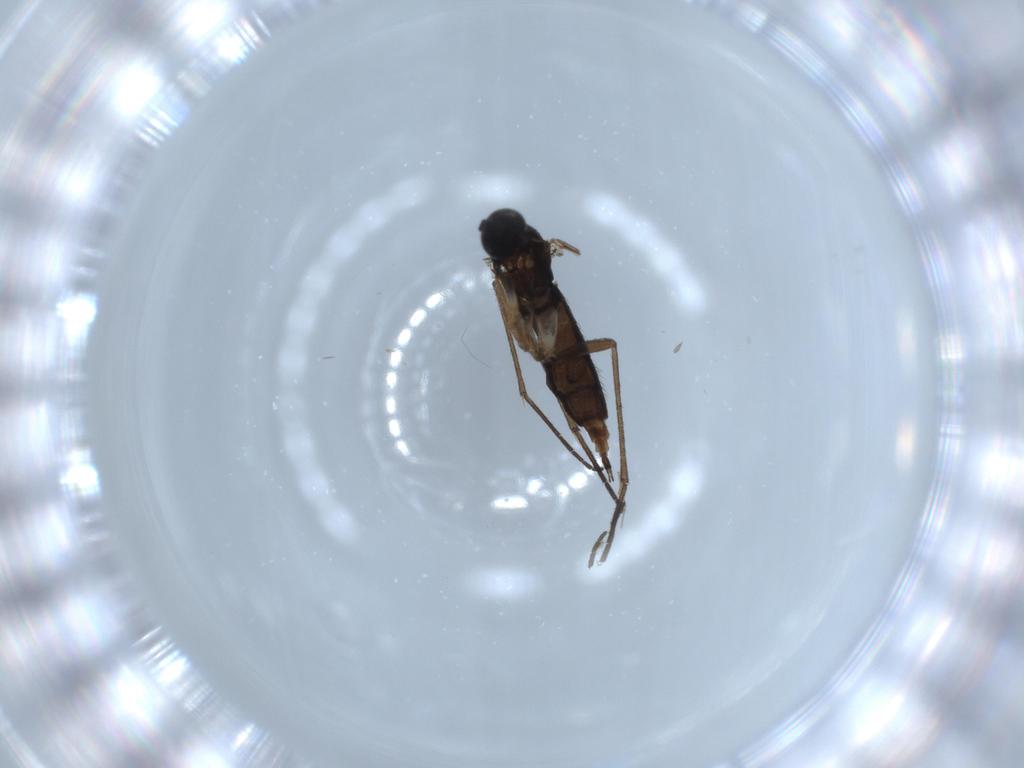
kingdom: Animalia
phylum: Arthropoda
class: Insecta
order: Diptera
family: Sciaridae
